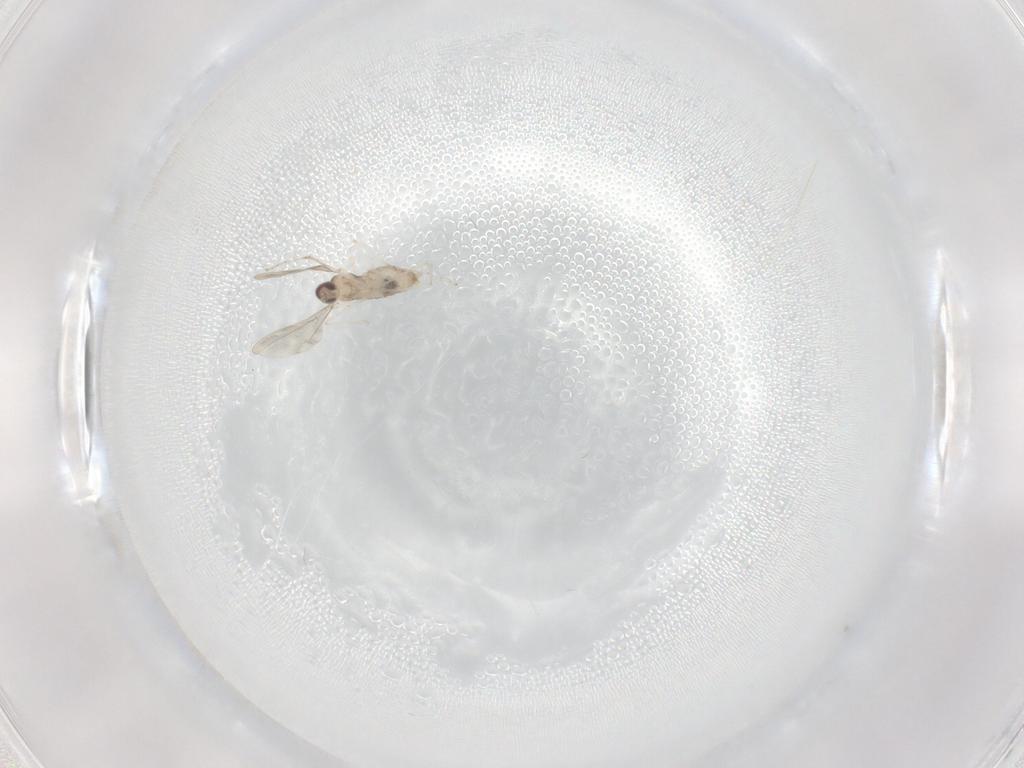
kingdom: Animalia
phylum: Arthropoda
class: Insecta
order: Diptera
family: Cecidomyiidae
